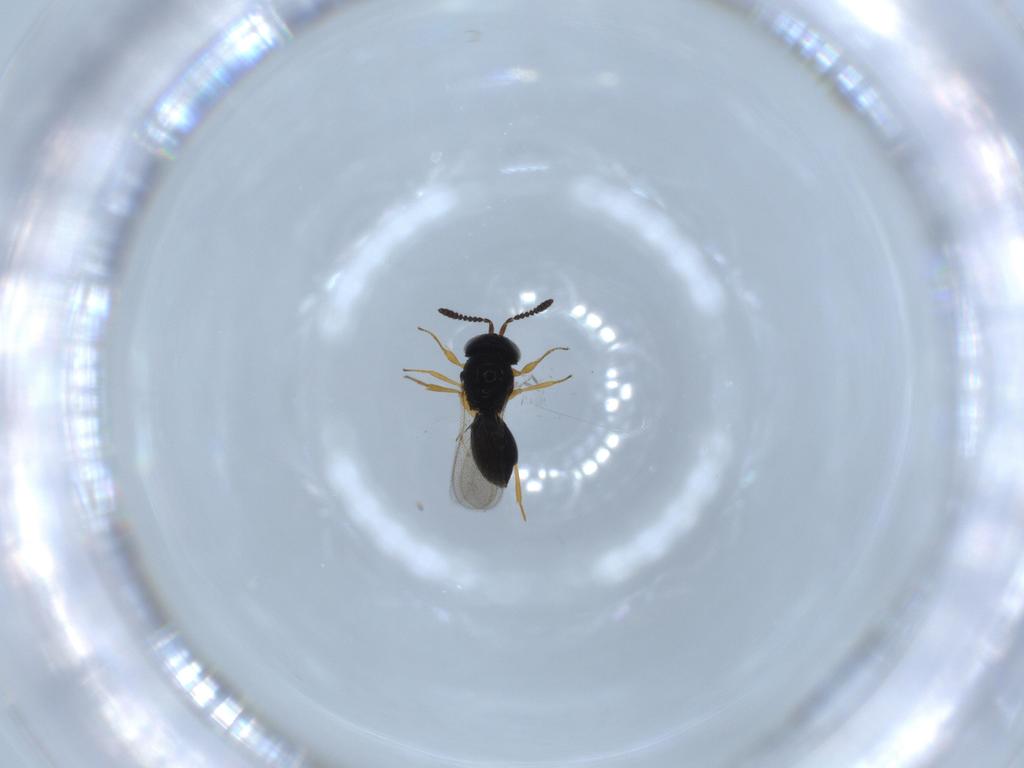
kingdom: Animalia
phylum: Arthropoda
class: Insecta
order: Hymenoptera
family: Scelionidae
